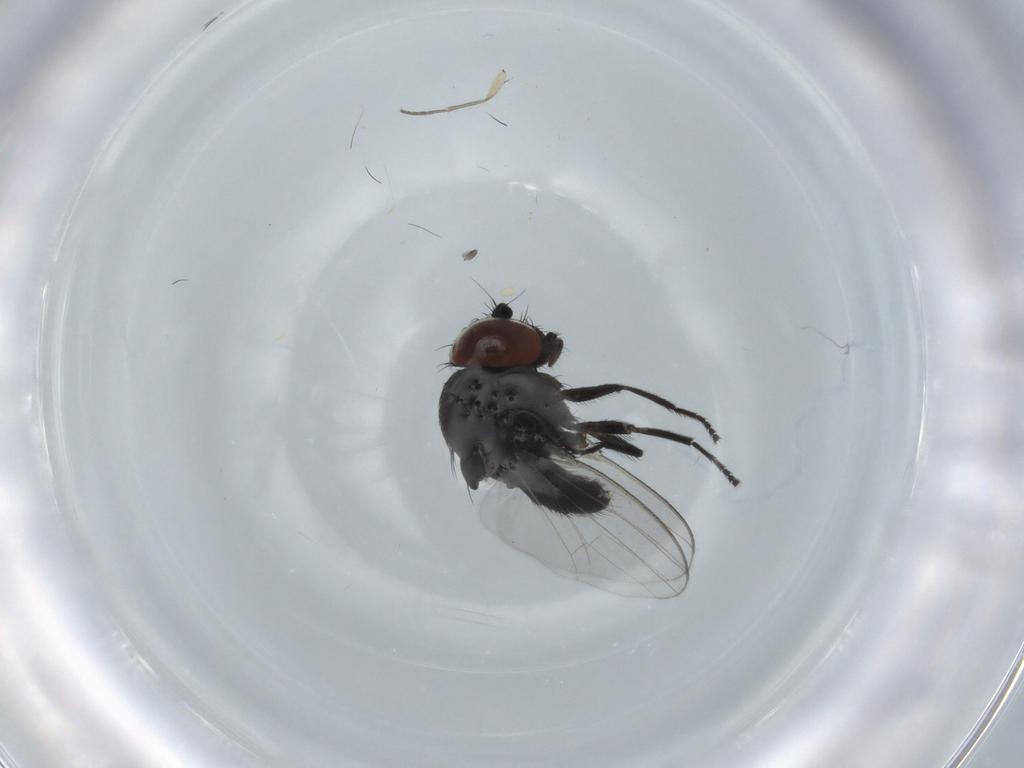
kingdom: Animalia
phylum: Arthropoda
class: Insecta
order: Diptera
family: Sciaridae
